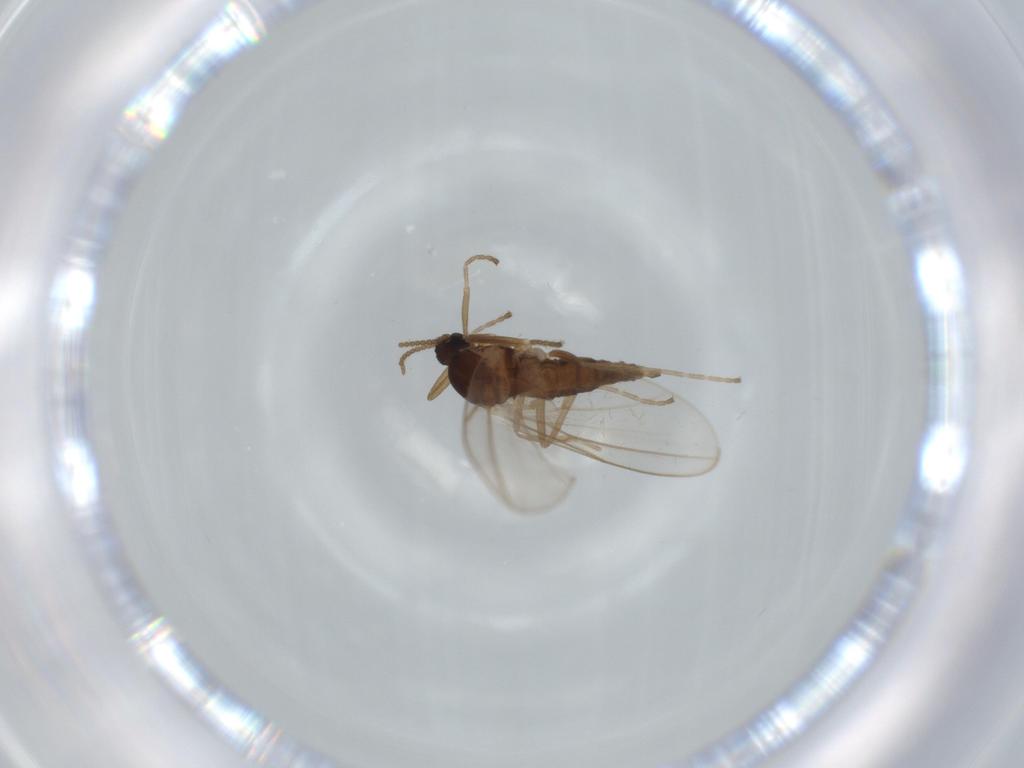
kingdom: Animalia
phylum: Arthropoda
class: Insecta
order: Diptera
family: Cecidomyiidae
